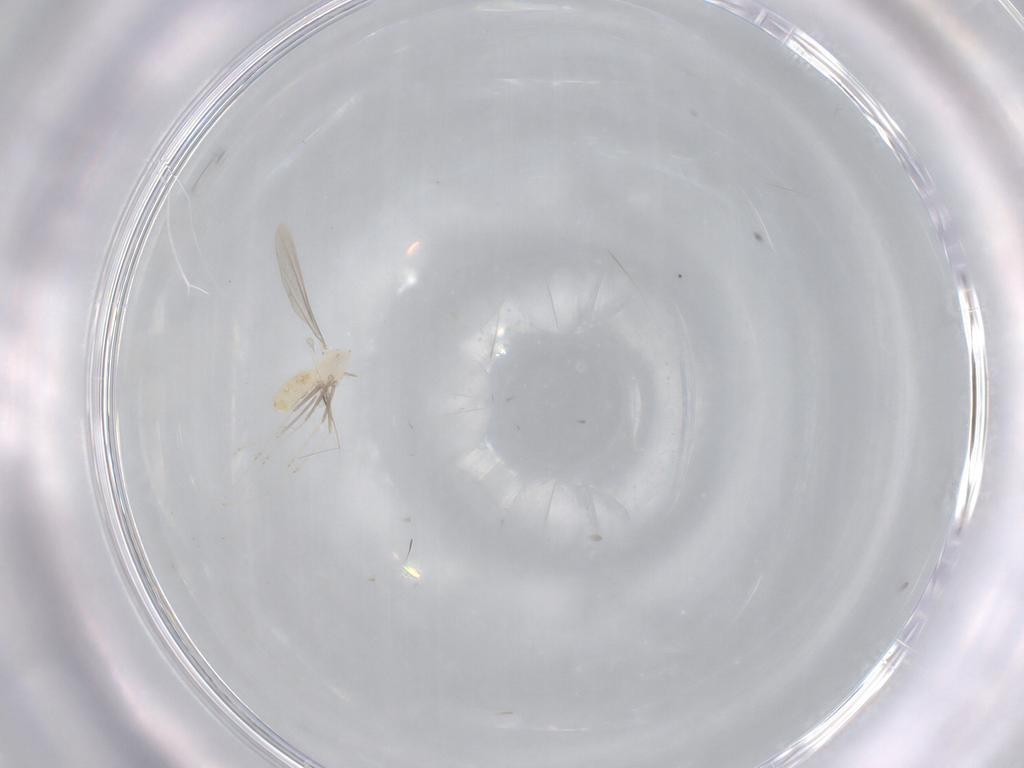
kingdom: Animalia
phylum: Arthropoda
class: Insecta
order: Diptera
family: Cecidomyiidae
